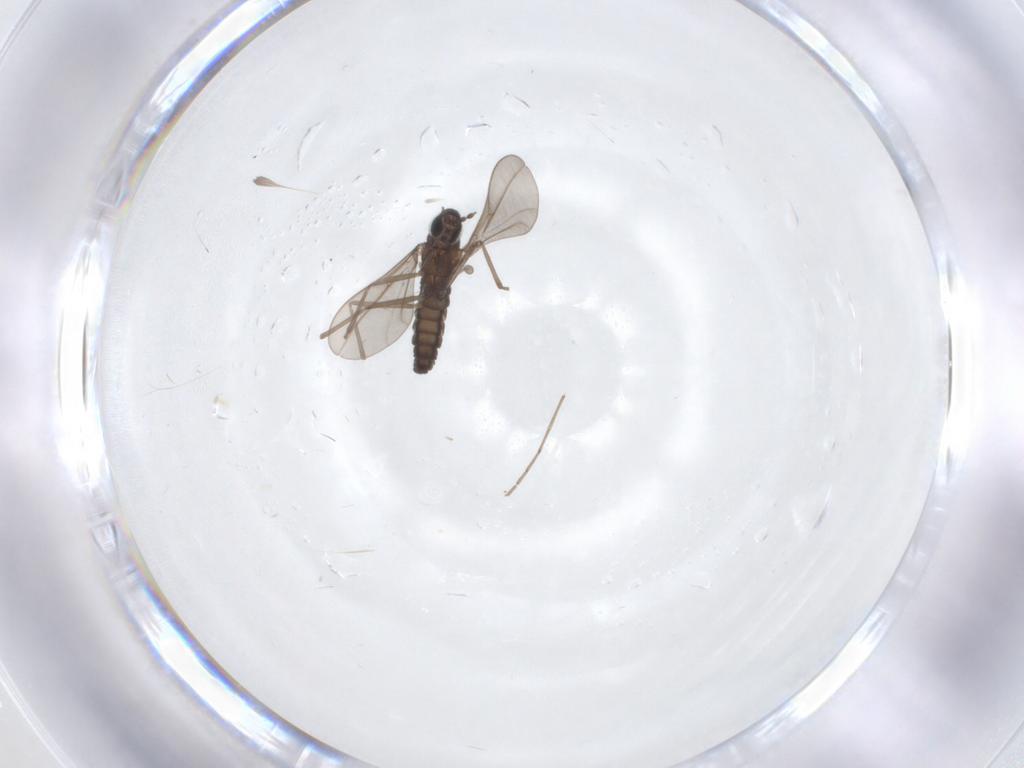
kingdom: Animalia
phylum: Arthropoda
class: Insecta
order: Diptera
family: Cecidomyiidae
